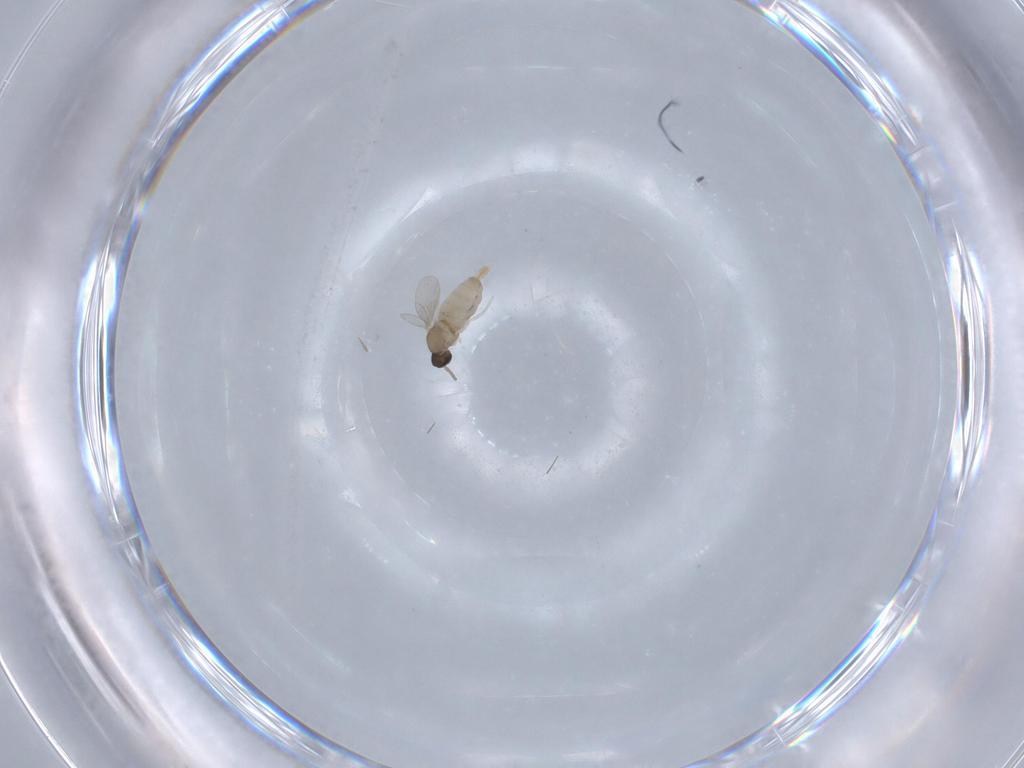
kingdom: Animalia
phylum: Arthropoda
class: Insecta
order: Diptera
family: Cecidomyiidae
